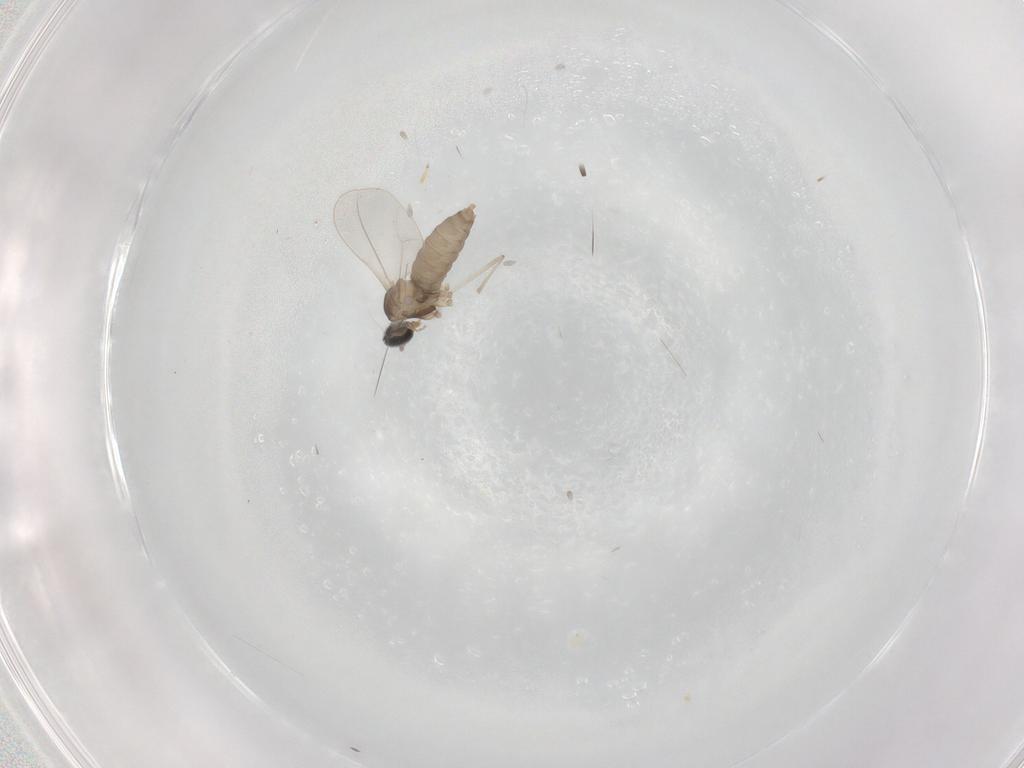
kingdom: Animalia
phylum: Arthropoda
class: Insecta
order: Diptera
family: Cecidomyiidae
